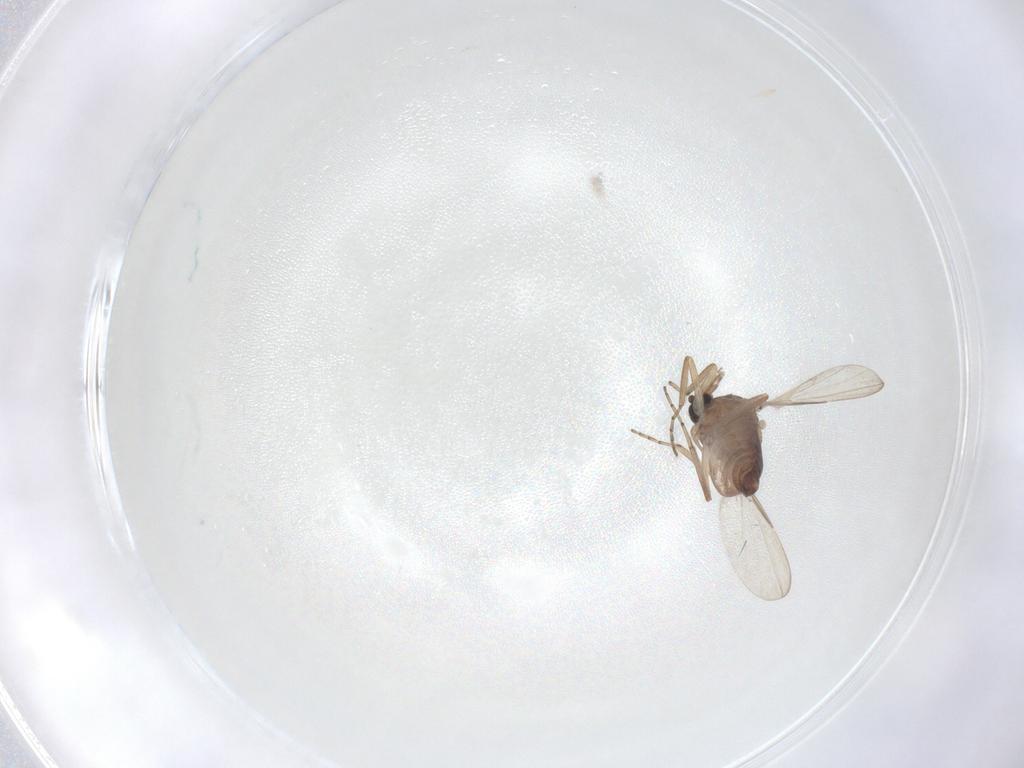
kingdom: Animalia
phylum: Arthropoda
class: Insecta
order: Diptera
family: Ceratopogonidae
